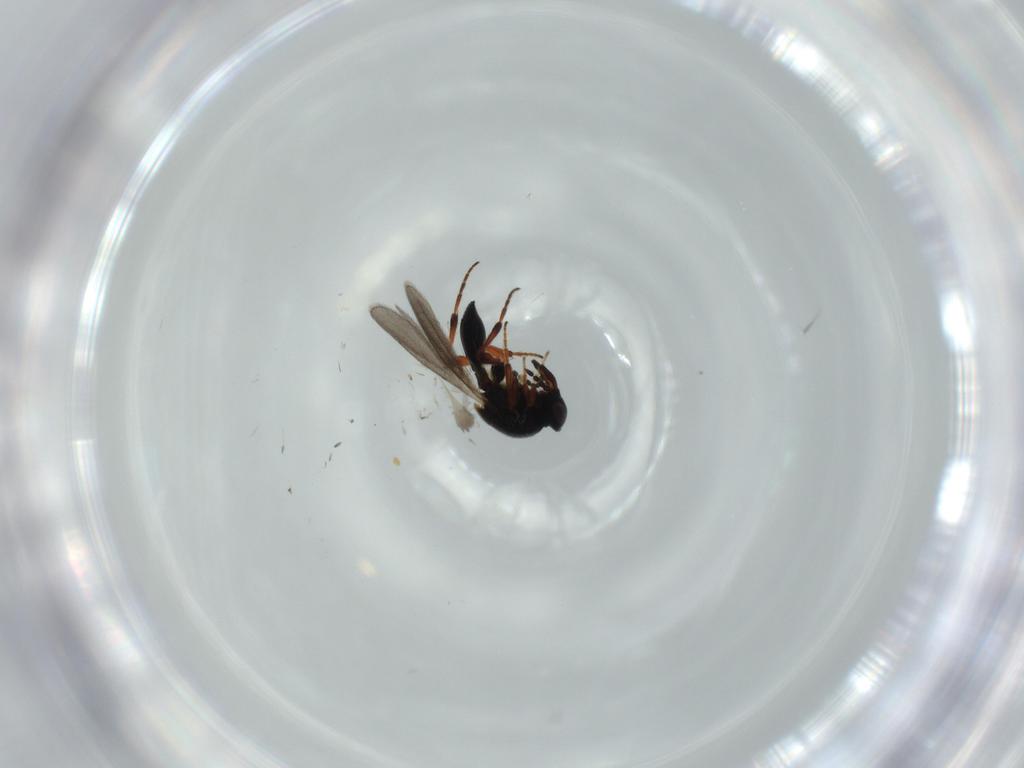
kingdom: Animalia
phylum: Arthropoda
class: Insecta
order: Hymenoptera
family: Platygastridae
